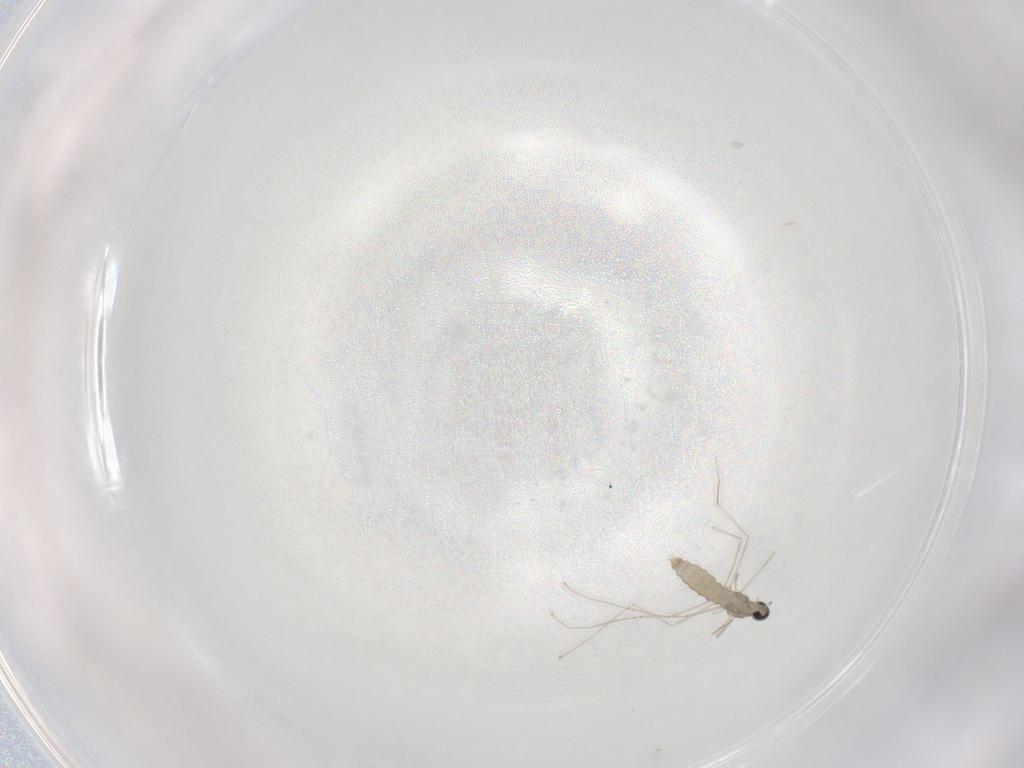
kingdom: Animalia
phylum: Arthropoda
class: Insecta
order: Diptera
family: Cecidomyiidae
